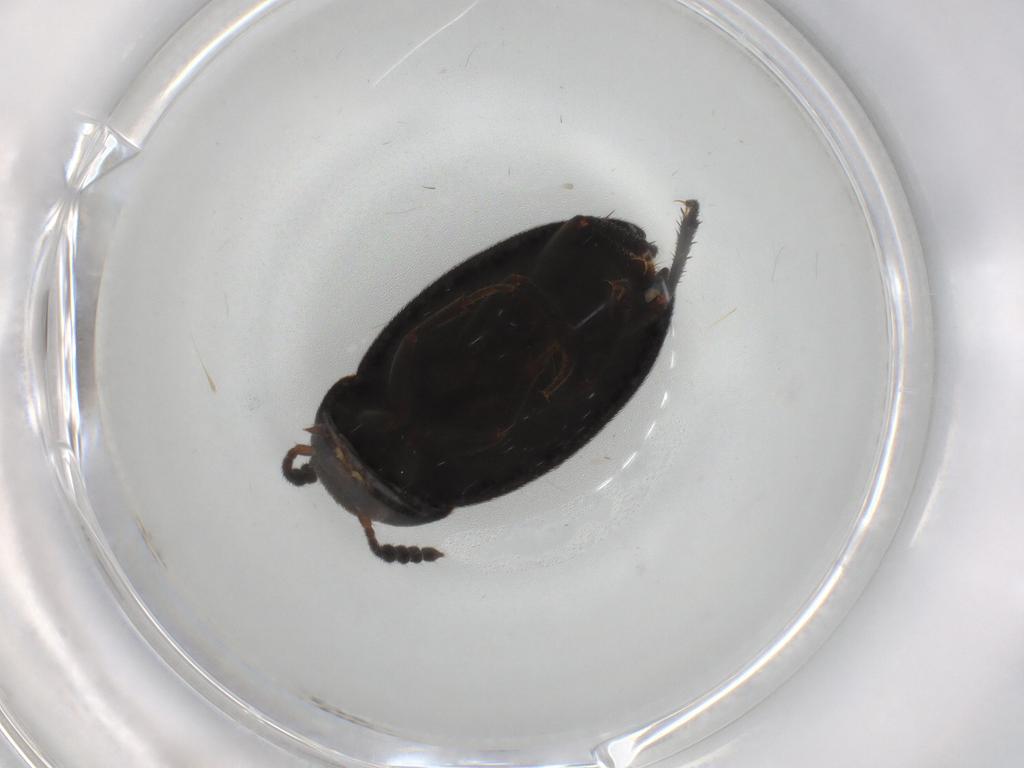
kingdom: Animalia
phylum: Arthropoda
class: Insecta
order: Coleoptera
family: Leiodidae
